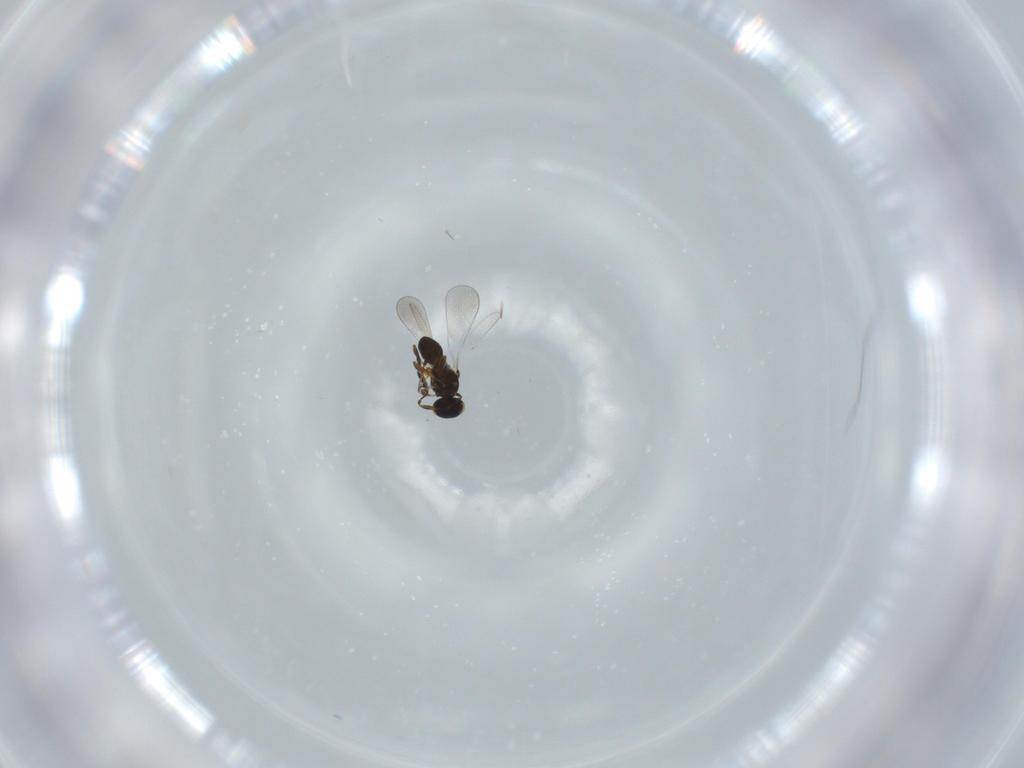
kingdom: Animalia
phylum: Arthropoda
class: Insecta
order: Hymenoptera
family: Platygastridae
